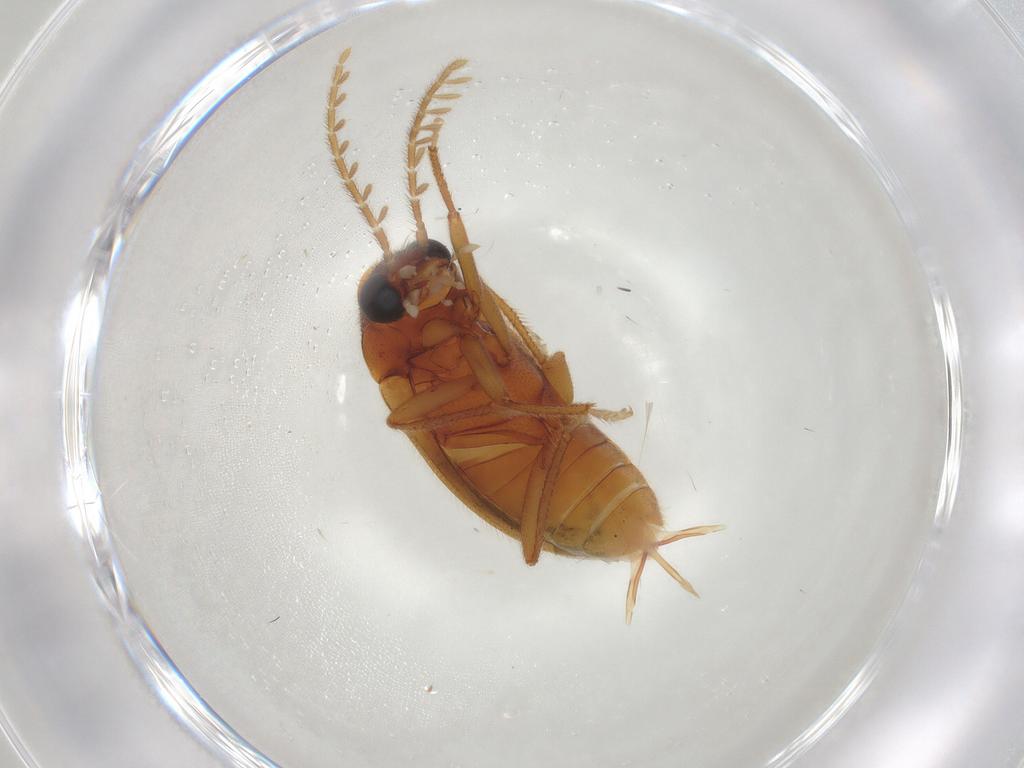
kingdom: Animalia
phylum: Arthropoda
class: Insecta
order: Coleoptera
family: Ptilodactylidae
